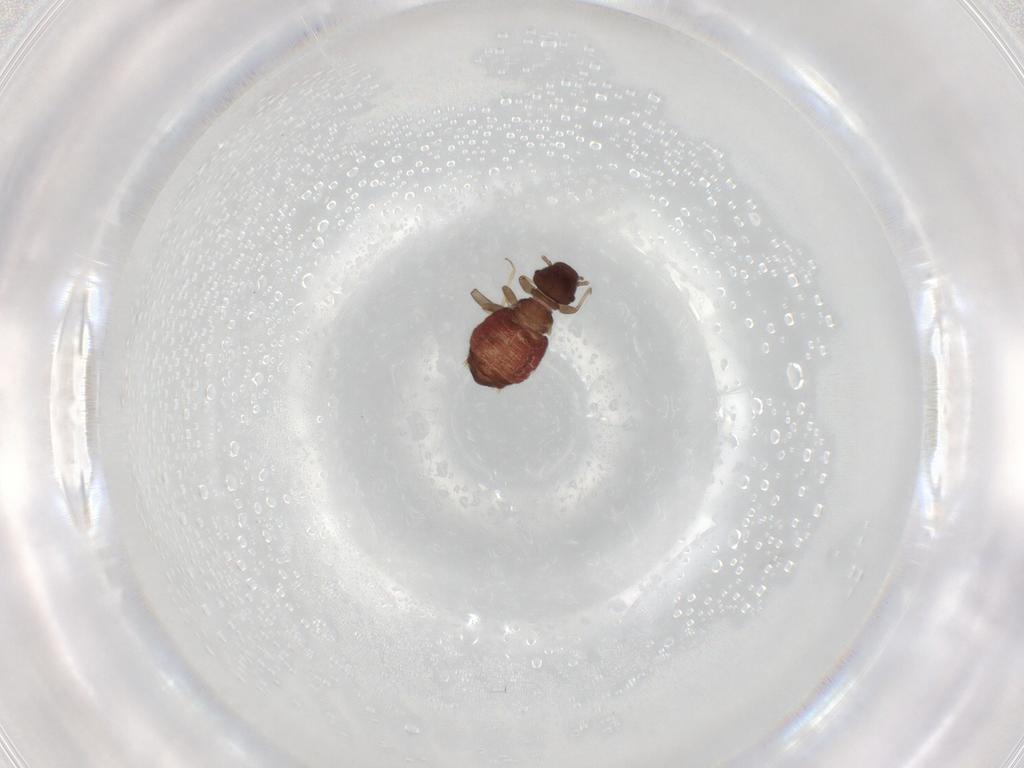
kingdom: Animalia
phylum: Arthropoda
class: Insecta
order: Psocodea
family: Archipsocidae
